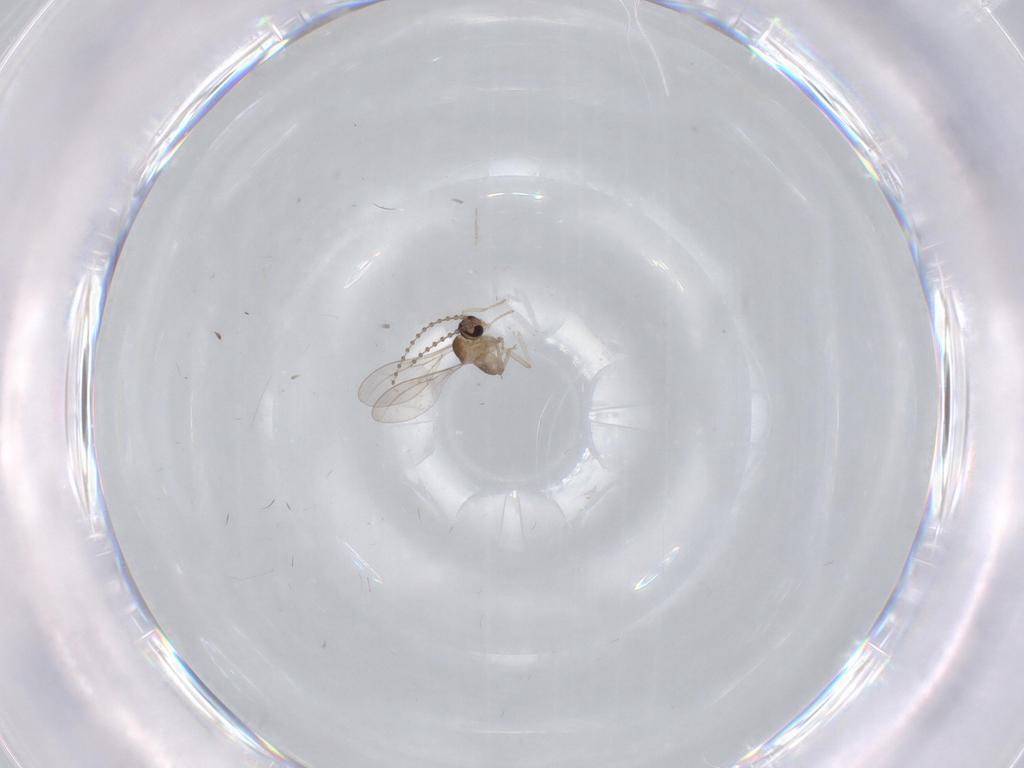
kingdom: Animalia
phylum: Arthropoda
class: Insecta
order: Diptera
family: Cecidomyiidae
